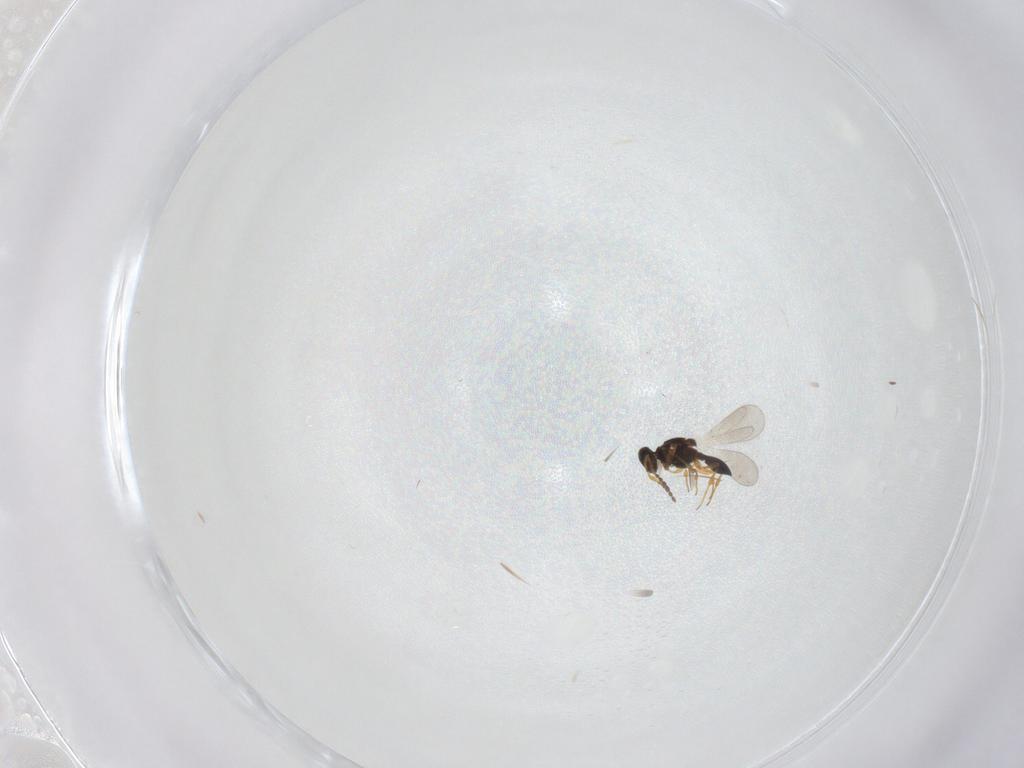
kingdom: Animalia
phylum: Arthropoda
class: Insecta
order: Hymenoptera
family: Ichneumonidae
